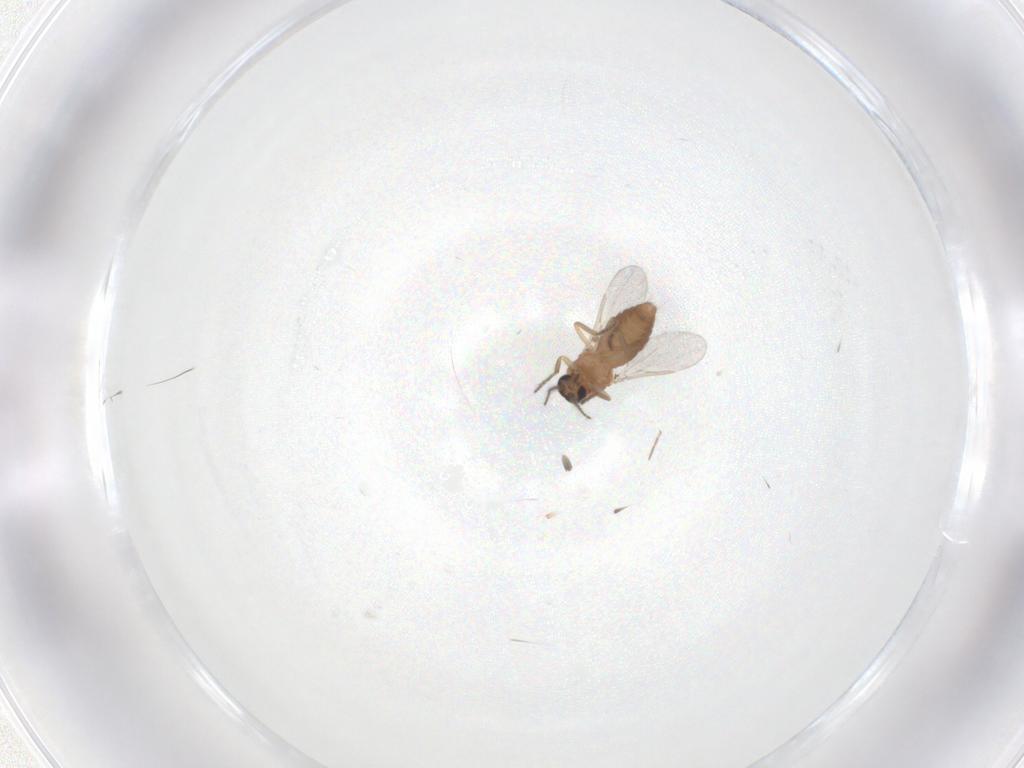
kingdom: Animalia
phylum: Arthropoda
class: Insecta
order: Diptera
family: Ceratopogonidae
